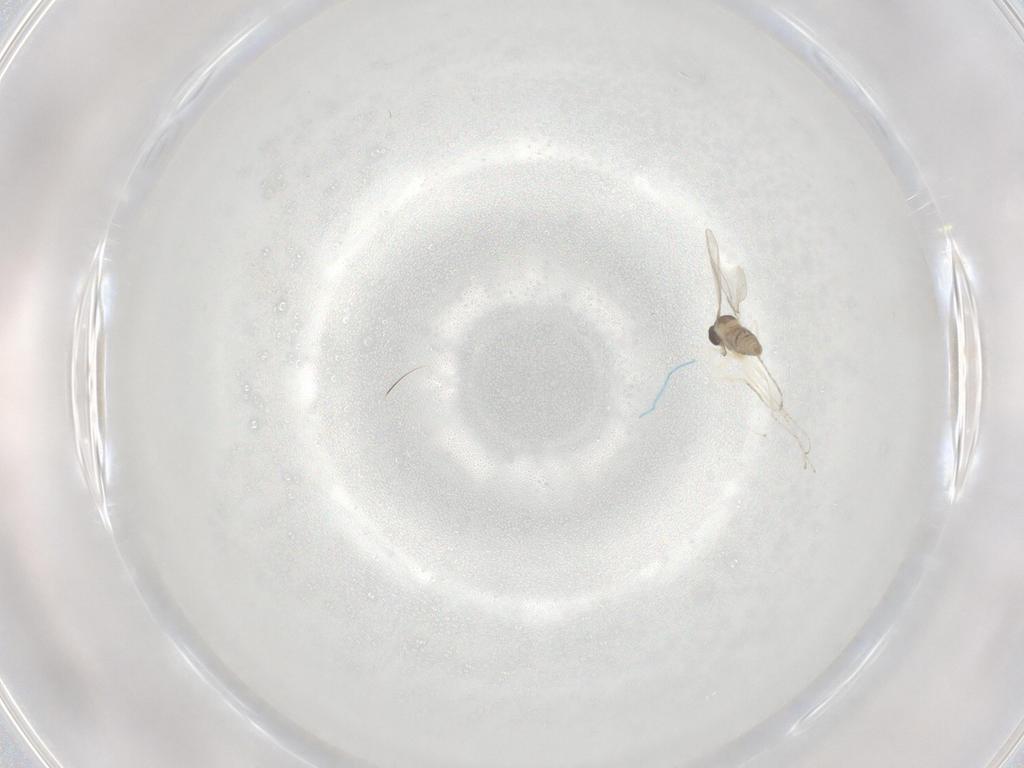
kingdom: Animalia
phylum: Arthropoda
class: Insecta
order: Diptera
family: Cecidomyiidae
